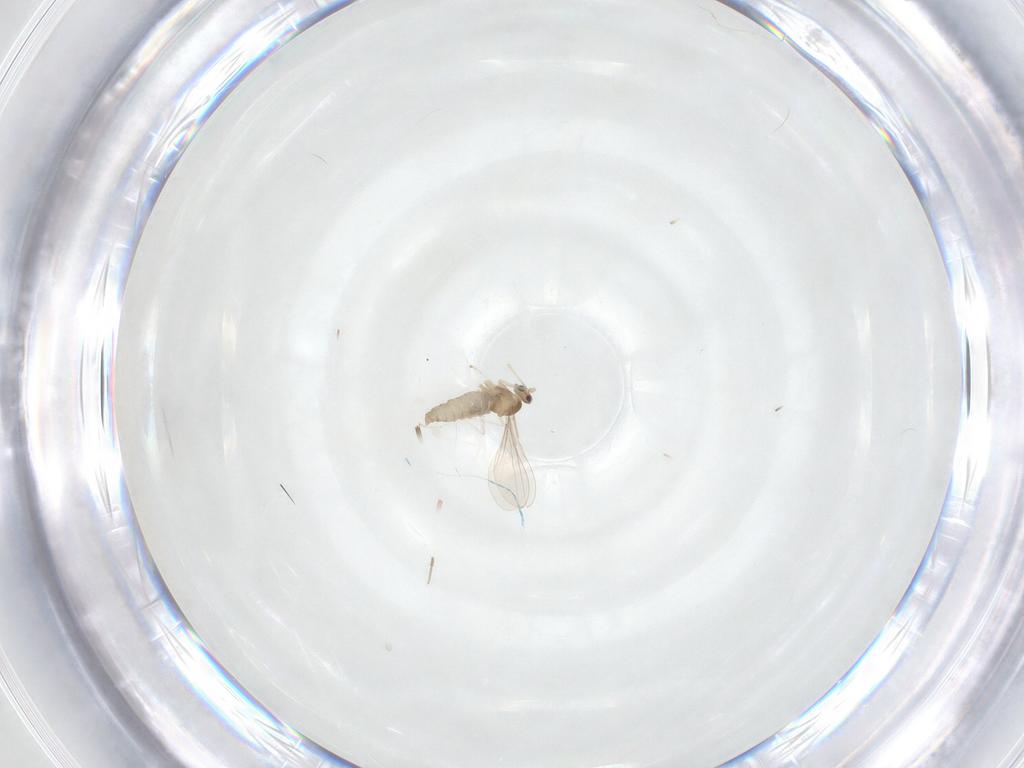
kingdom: Animalia
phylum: Arthropoda
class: Insecta
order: Diptera
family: Cecidomyiidae
